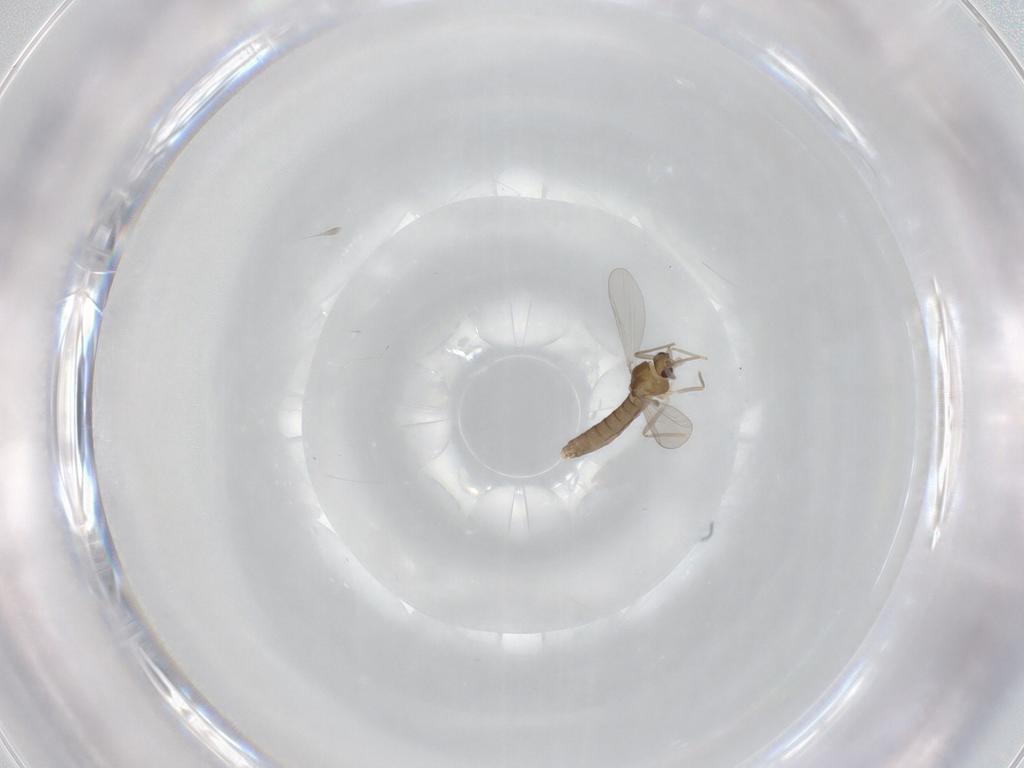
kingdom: Animalia
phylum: Arthropoda
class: Insecta
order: Diptera
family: Chironomidae
